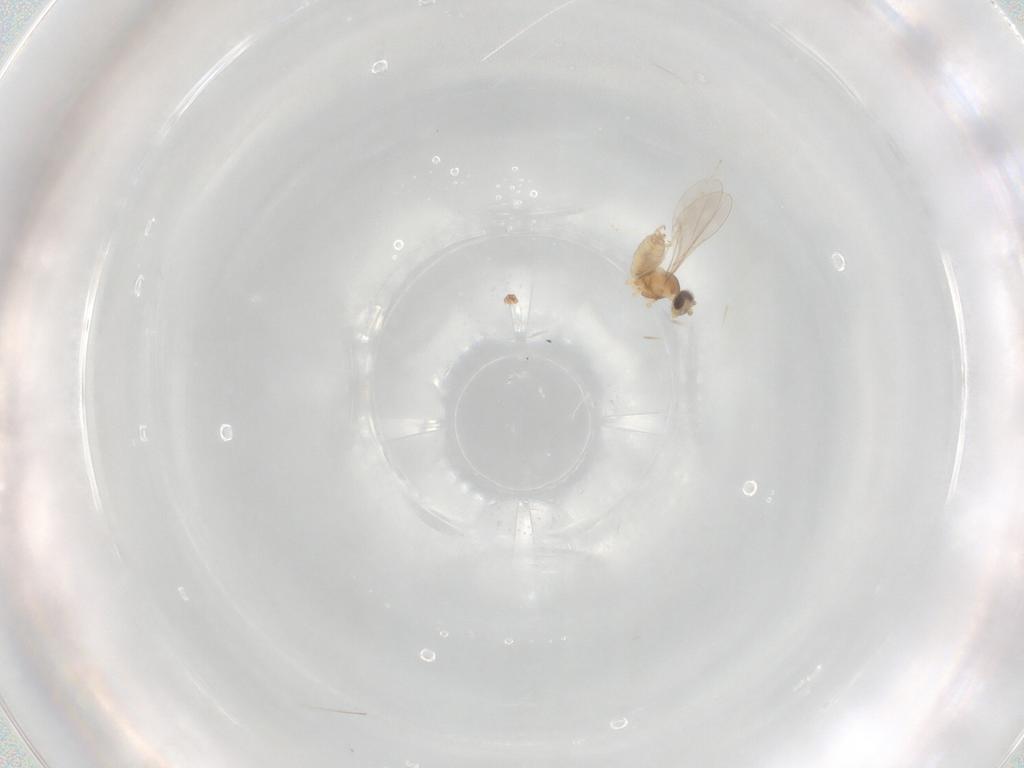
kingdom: Animalia
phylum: Arthropoda
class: Insecta
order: Diptera
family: Cecidomyiidae
